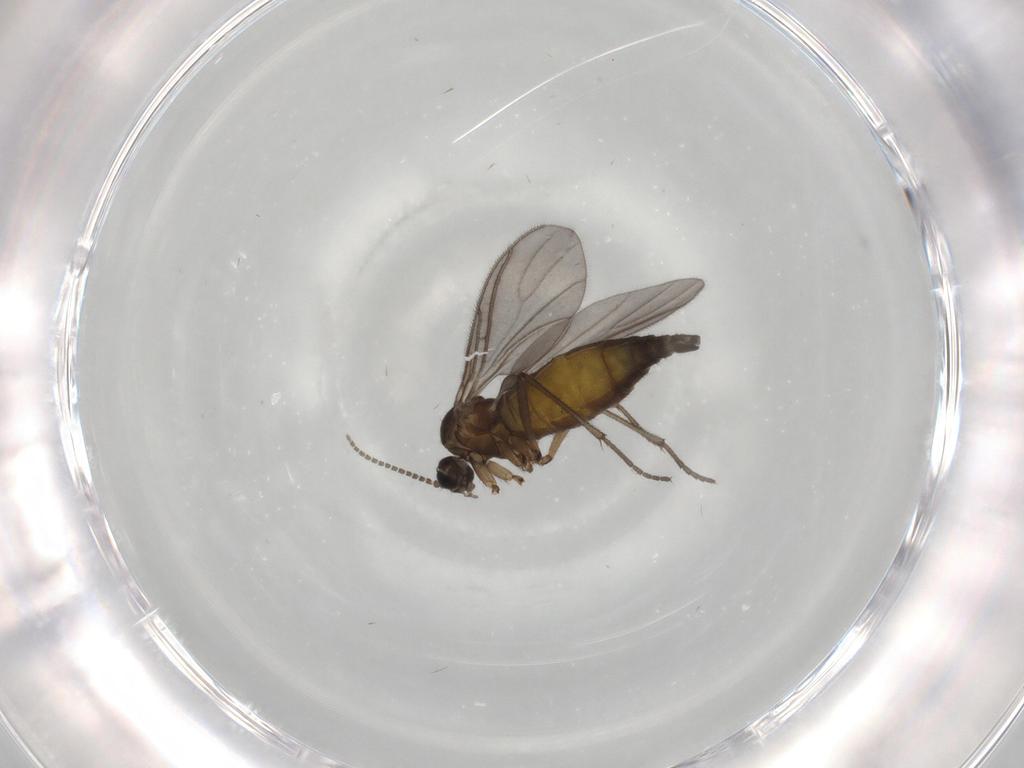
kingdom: Animalia
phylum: Arthropoda
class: Insecta
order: Diptera
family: Sciaridae
